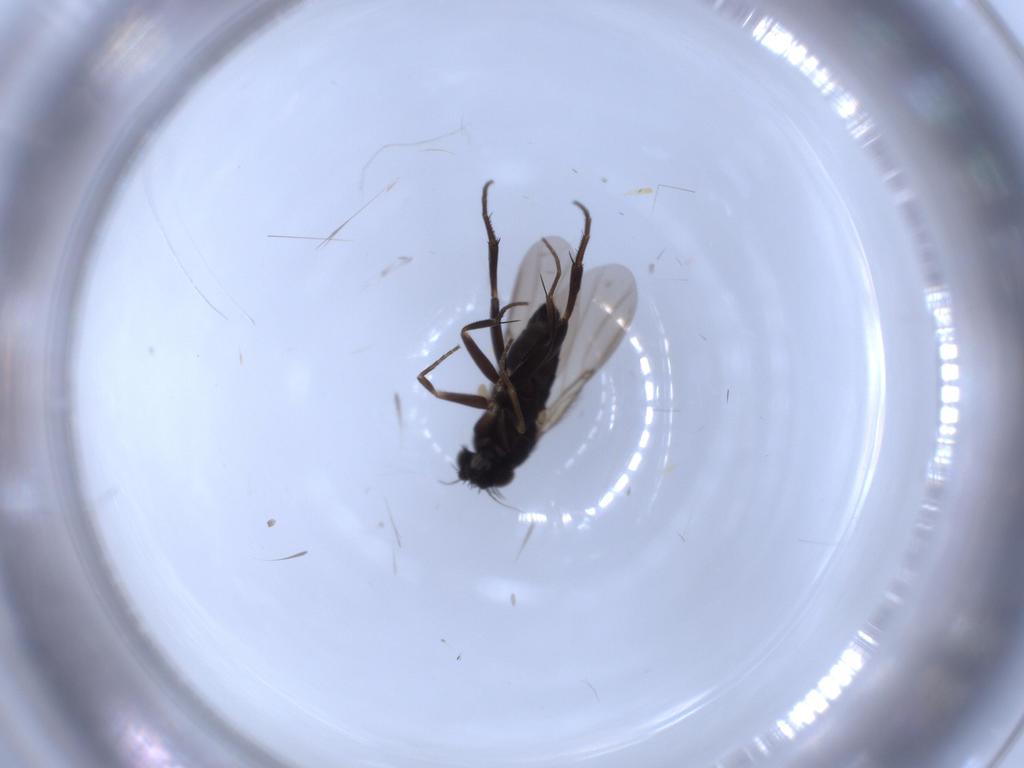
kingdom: Animalia
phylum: Arthropoda
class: Insecta
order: Diptera
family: Phoridae
